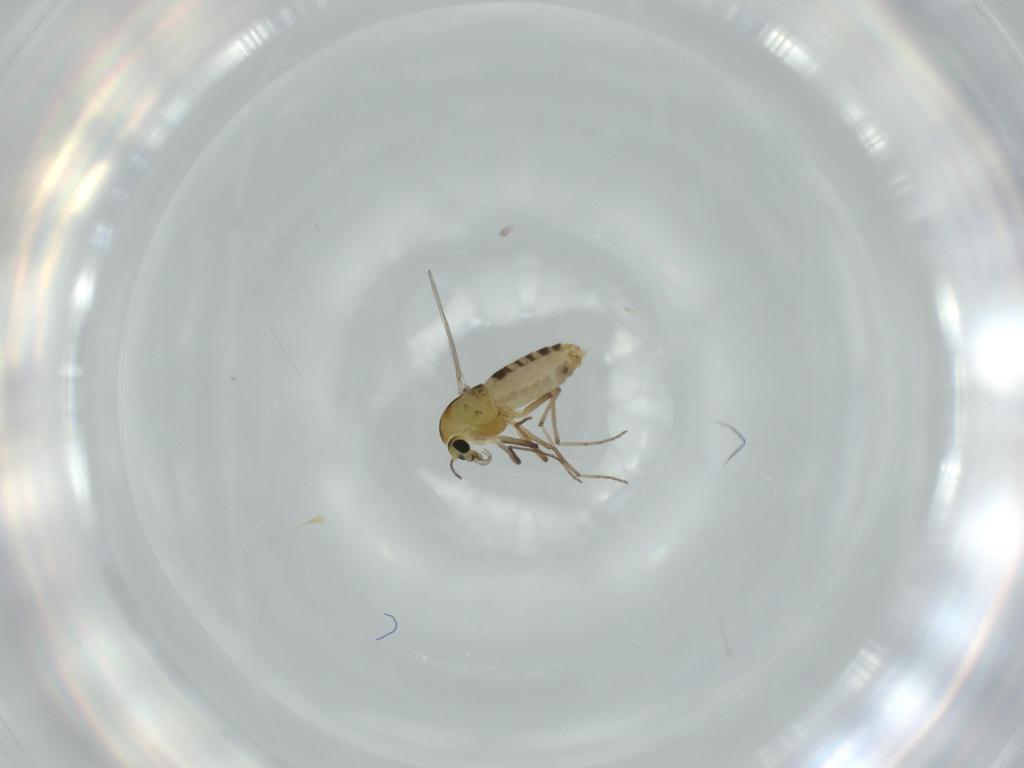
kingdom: Animalia
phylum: Arthropoda
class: Insecta
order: Diptera
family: Chironomidae
